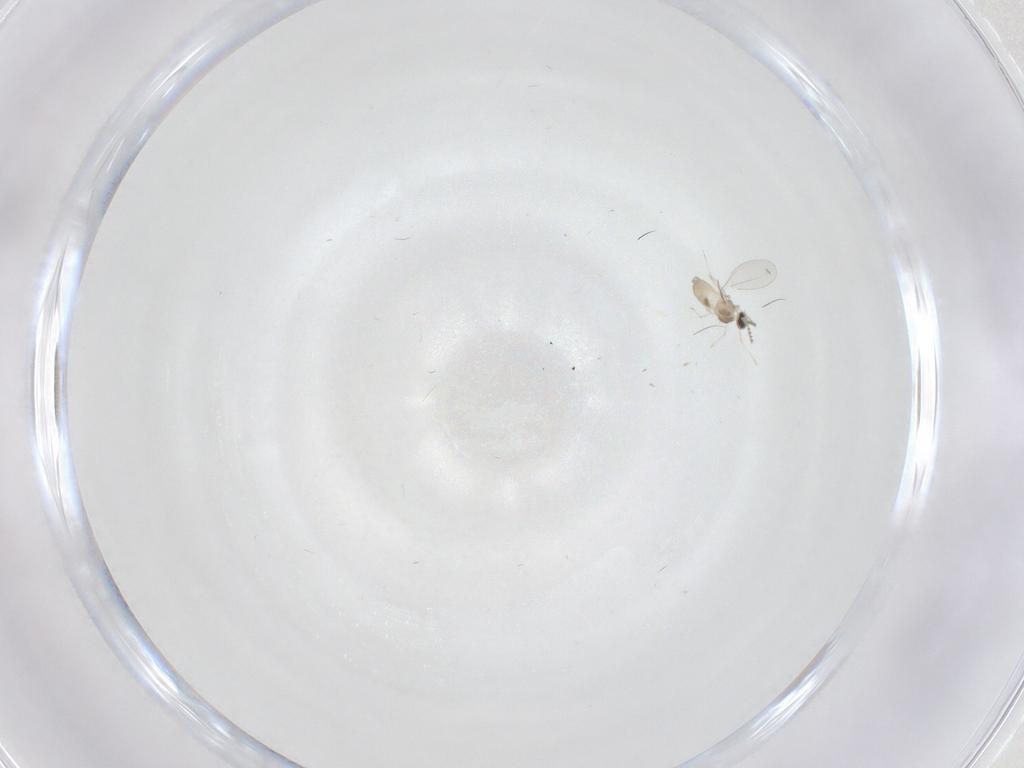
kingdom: Animalia
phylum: Arthropoda
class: Insecta
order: Diptera
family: Cecidomyiidae
